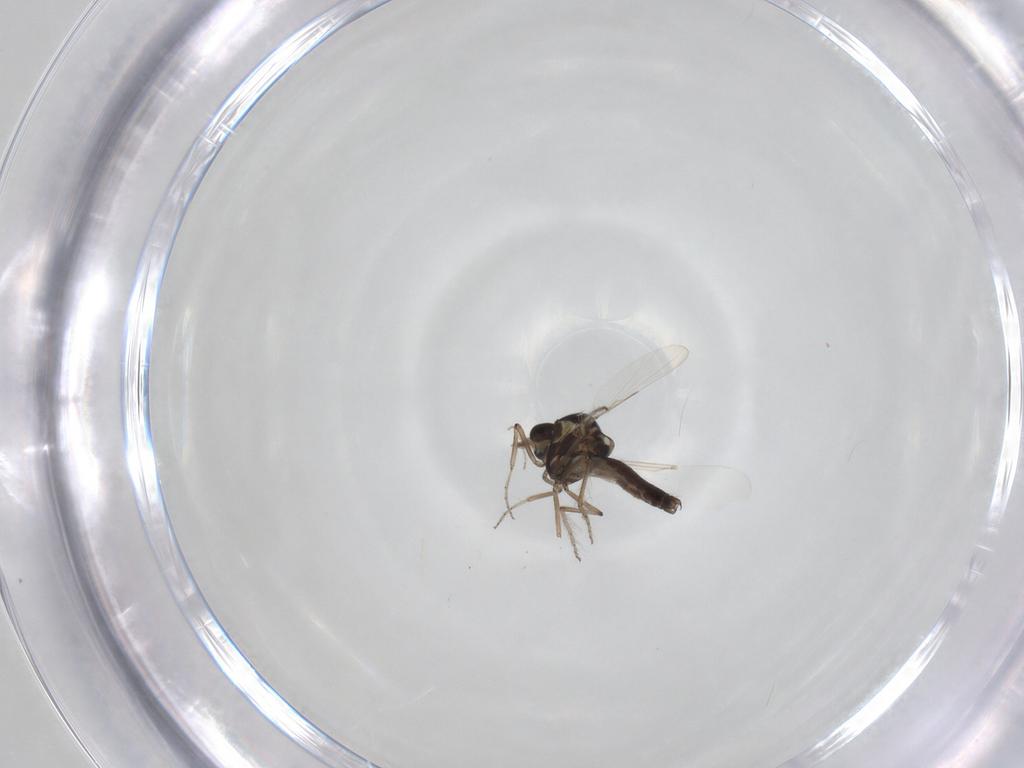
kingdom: Animalia
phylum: Arthropoda
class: Insecta
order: Diptera
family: Ceratopogonidae
